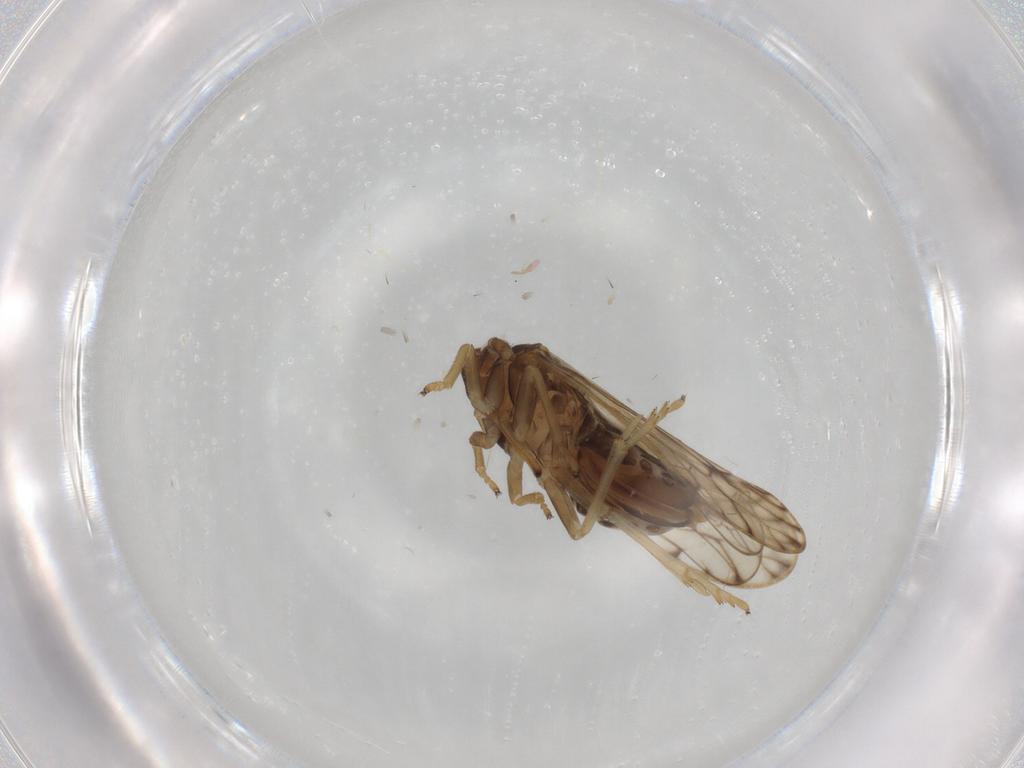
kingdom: Animalia
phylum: Arthropoda
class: Insecta
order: Hemiptera
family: Delphacidae
